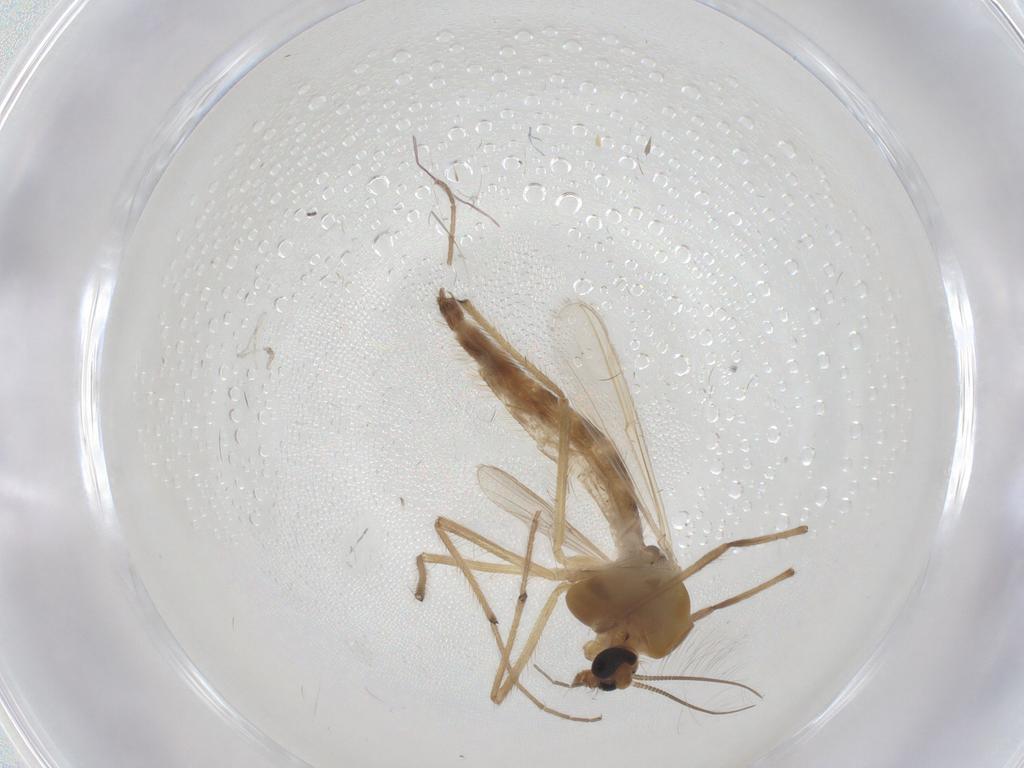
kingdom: Animalia
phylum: Arthropoda
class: Insecta
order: Diptera
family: Chironomidae
